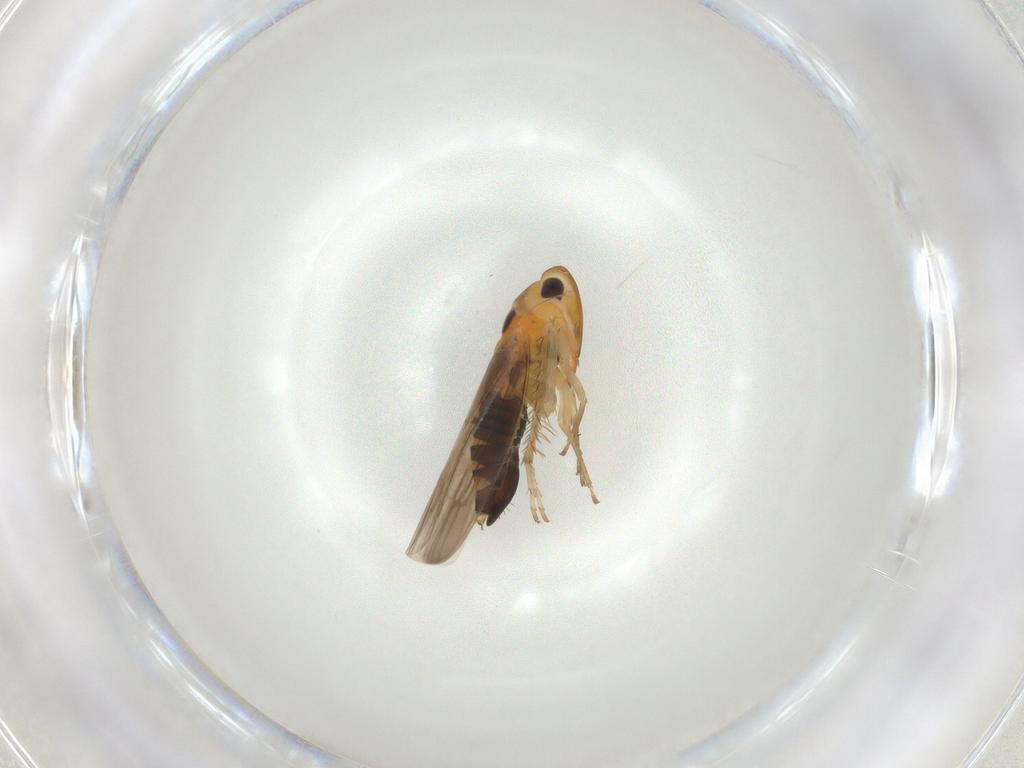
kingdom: Animalia
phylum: Arthropoda
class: Insecta
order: Hemiptera
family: Cicadellidae
